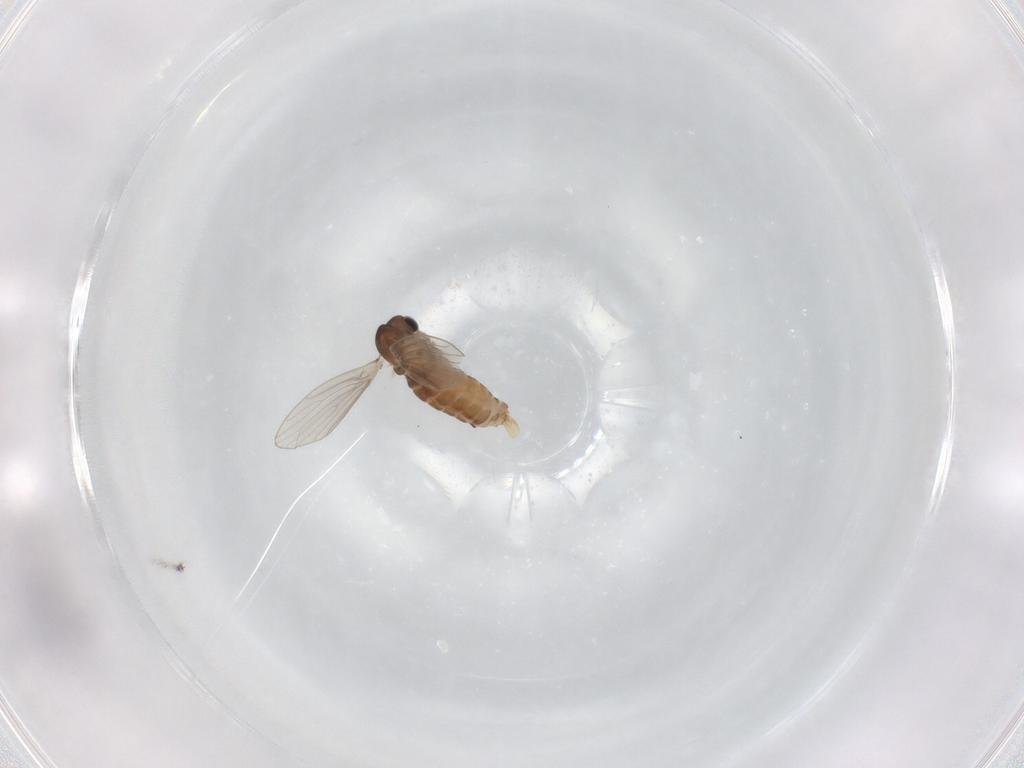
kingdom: Animalia
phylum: Arthropoda
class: Insecta
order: Diptera
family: Psychodidae
